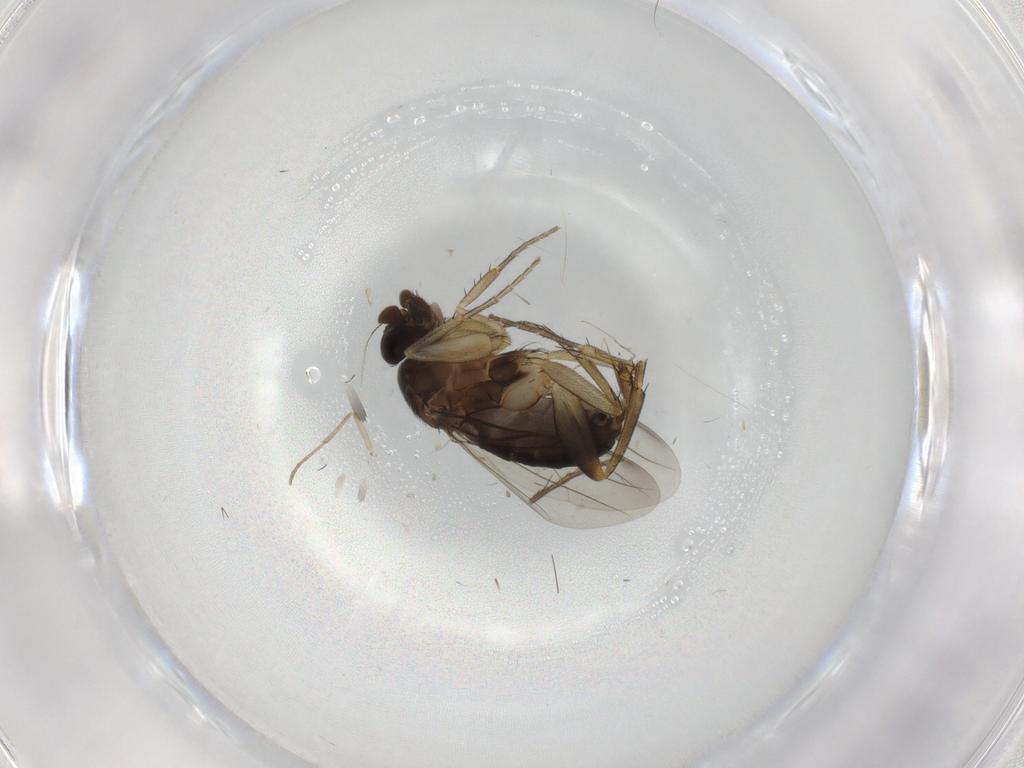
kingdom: Animalia
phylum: Arthropoda
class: Insecta
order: Diptera
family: Phoridae
